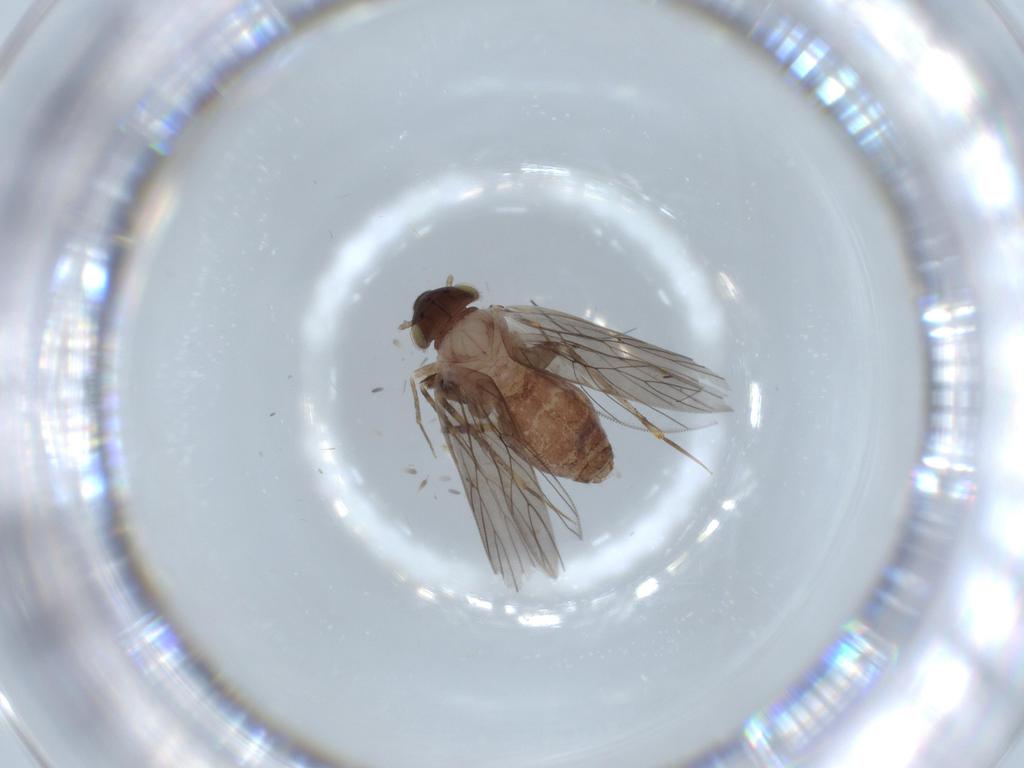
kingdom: Animalia
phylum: Arthropoda
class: Insecta
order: Psocodea
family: Lepidopsocidae
